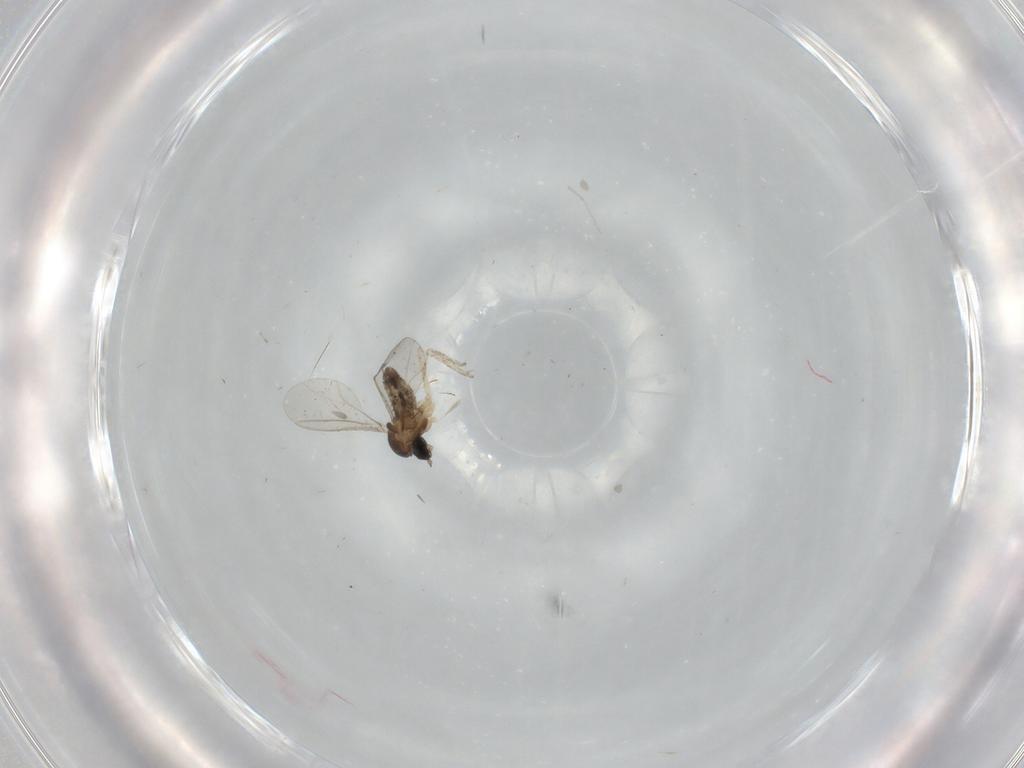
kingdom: Animalia
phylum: Arthropoda
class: Insecta
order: Diptera
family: Cecidomyiidae
